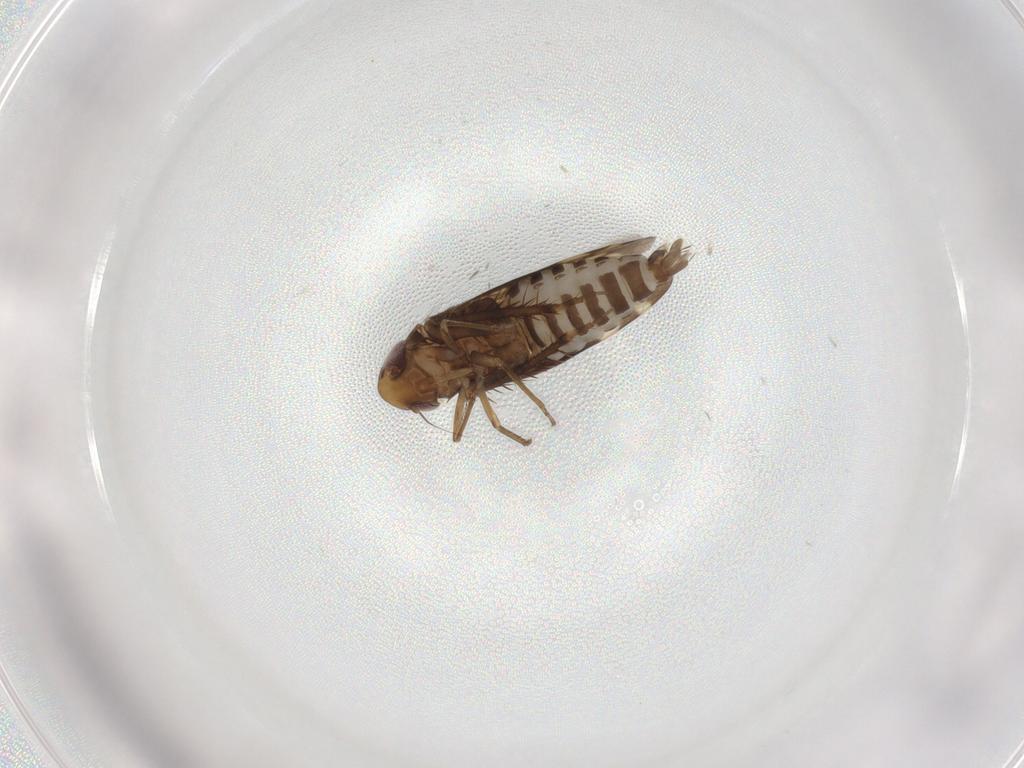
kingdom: Animalia
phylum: Arthropoda
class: Insecta
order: Hemiptera
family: Cicadellidae
